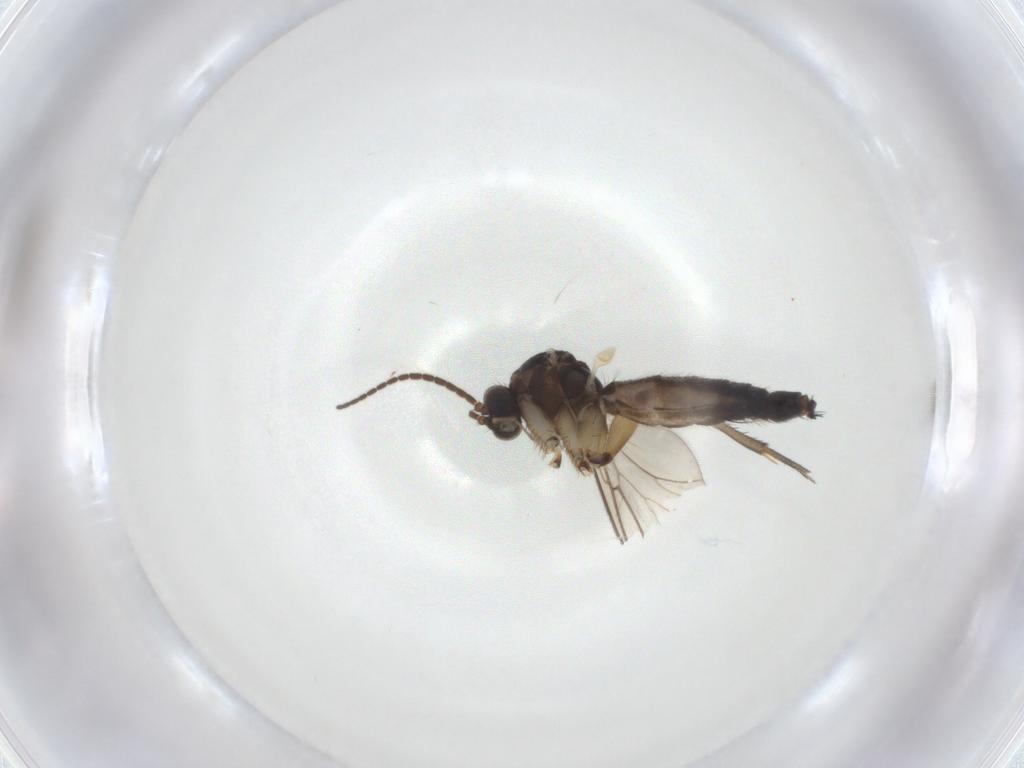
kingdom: Animalia
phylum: Arthropoda
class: Insecta
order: Diptera
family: Mycetophilidae
